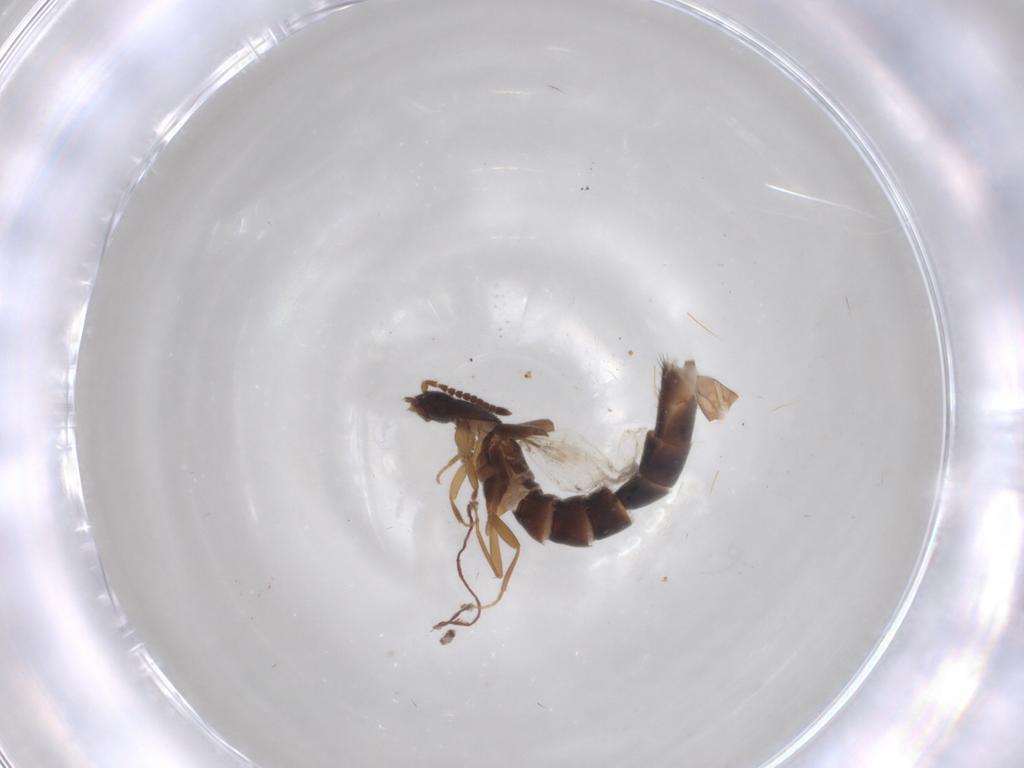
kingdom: Animalia
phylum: Arthropoda
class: Insecta
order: Coleoptera
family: Staphylinidae
